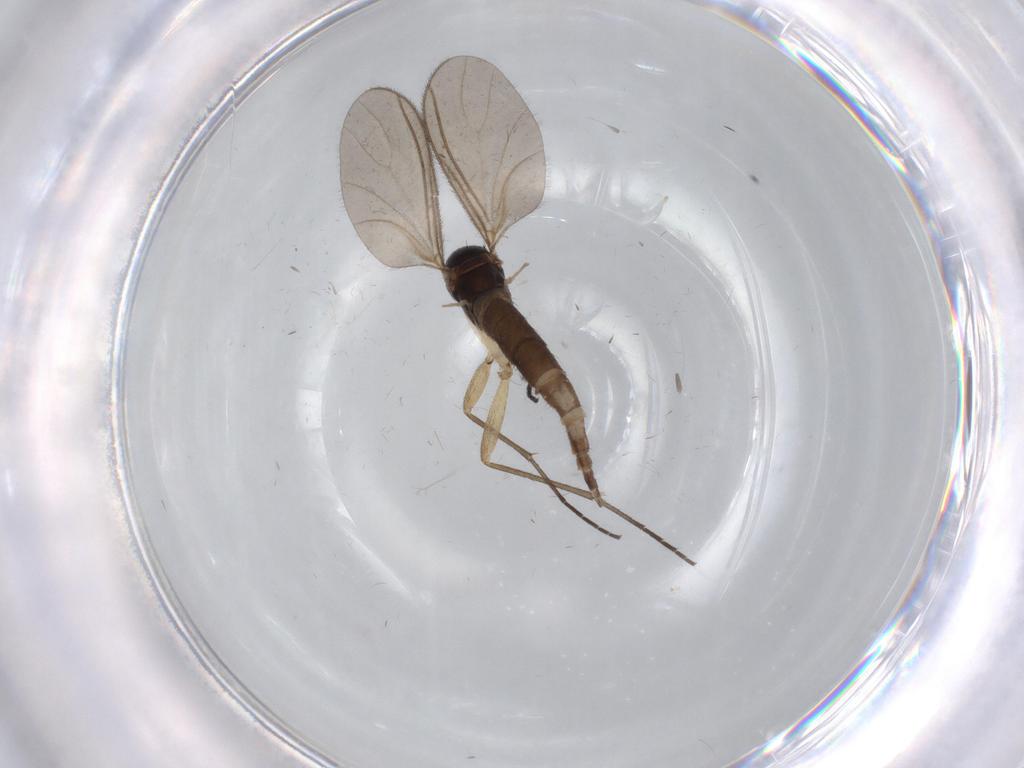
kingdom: Animalia
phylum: Arthropoda
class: Insecta
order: Diptera
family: Sciaridae
